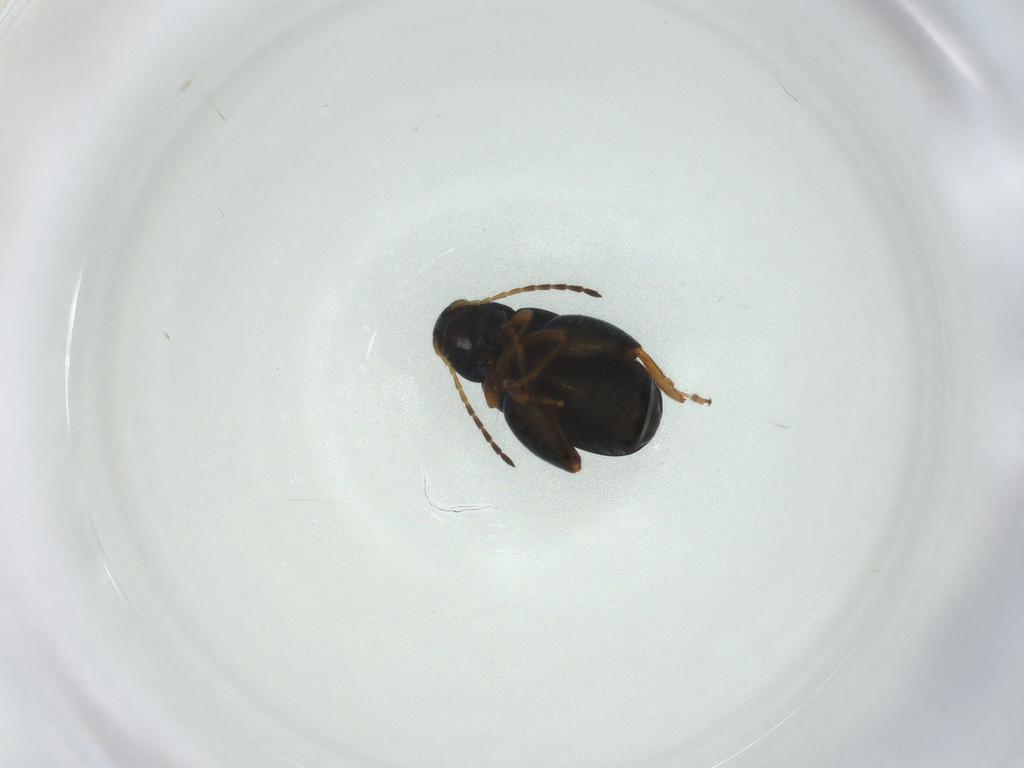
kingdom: Animalia
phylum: Arthropoda
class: Insecta
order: Coleoptera
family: Chrysomelidae
